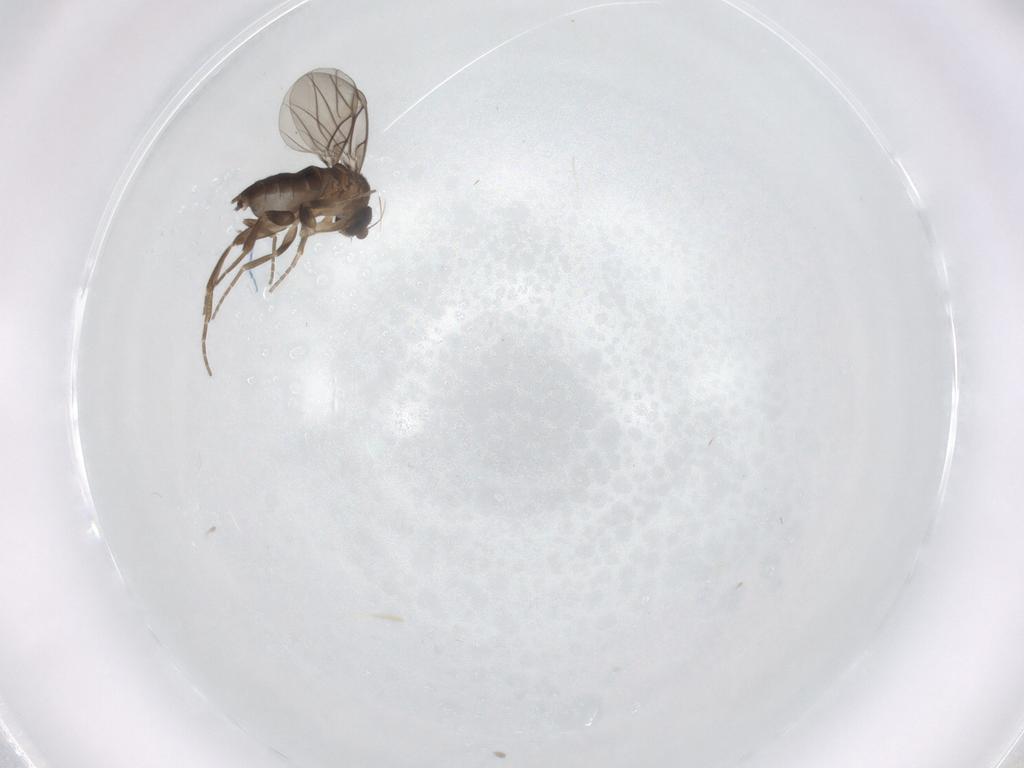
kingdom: Animalia
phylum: Arthropoda
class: Insecta
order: Diptera
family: Phoridae
